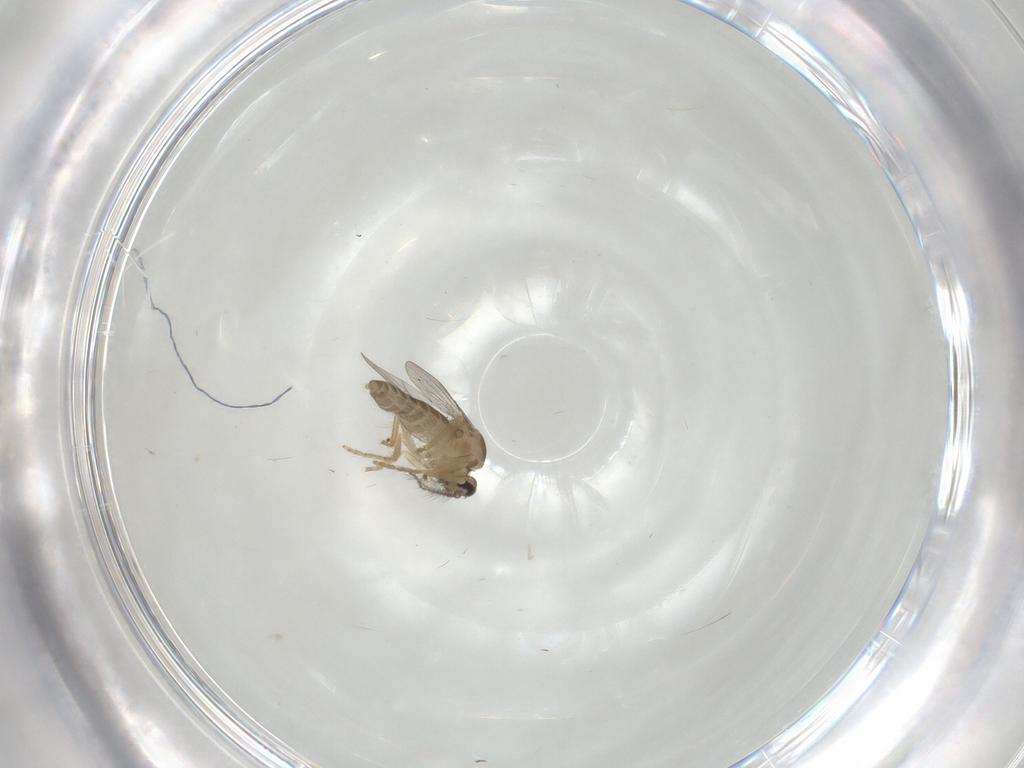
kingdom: Animalia
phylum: Arthropoda
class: Insecta
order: Diptera
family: Ceratopogonidae
